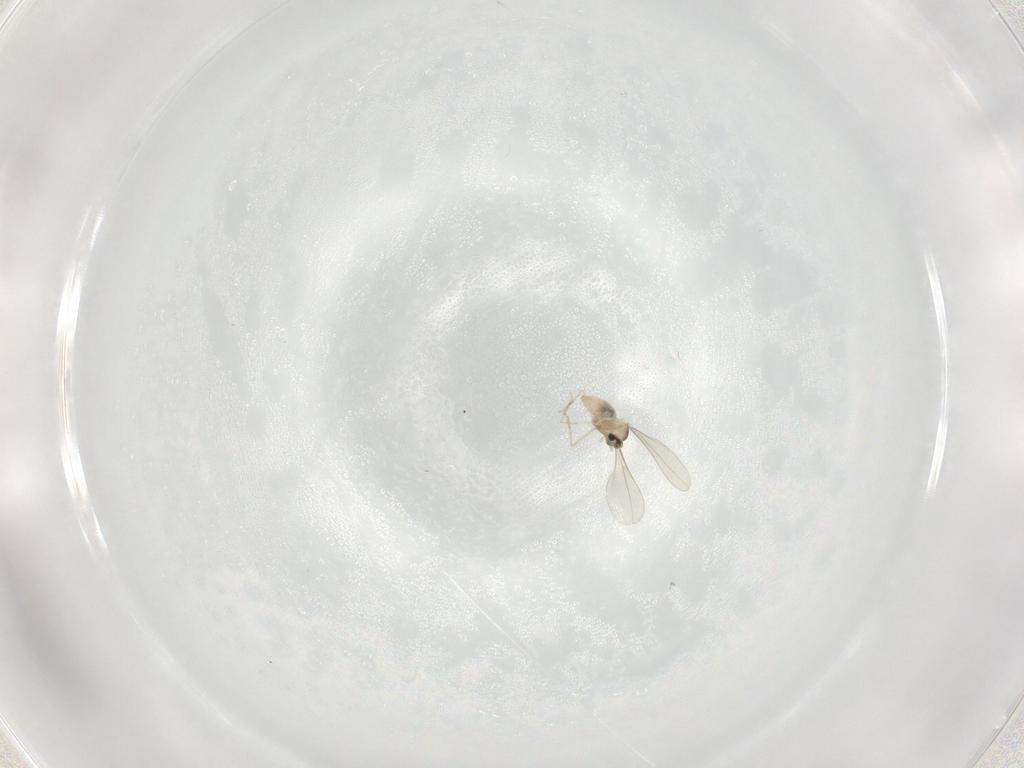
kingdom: Animalia
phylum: Arthropoda
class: Insecta
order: Diptera
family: Cecidomyiidae
